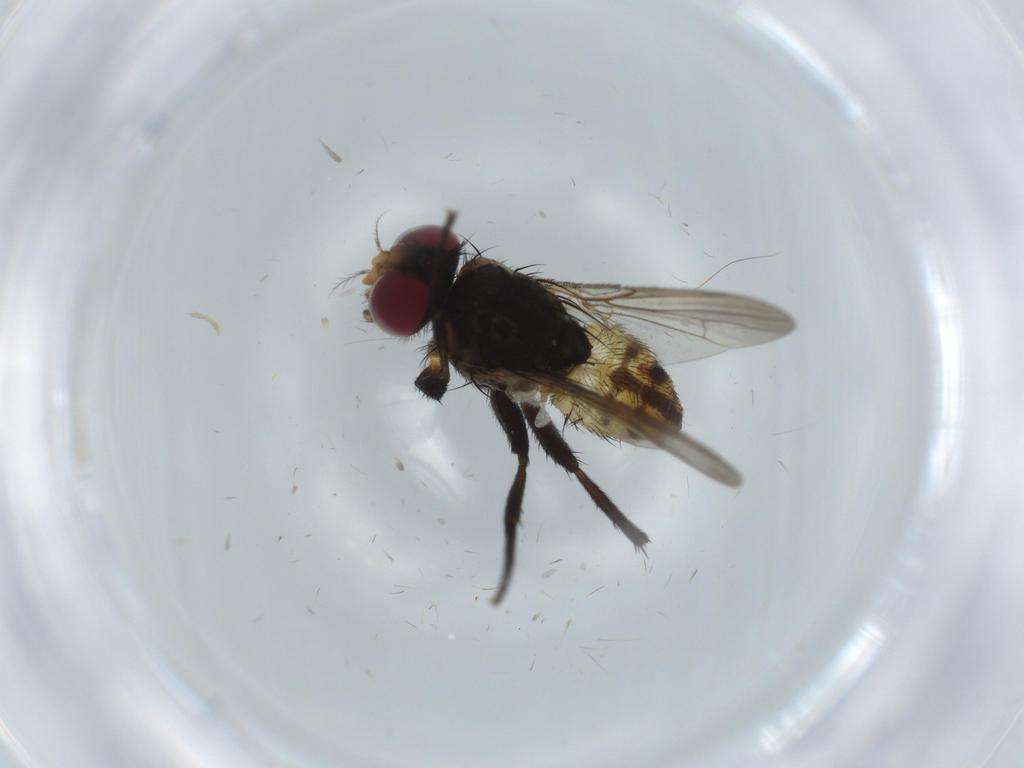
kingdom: Animalia
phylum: Arthropoda
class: Insecta
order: Diptera
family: Anthomyiidae
